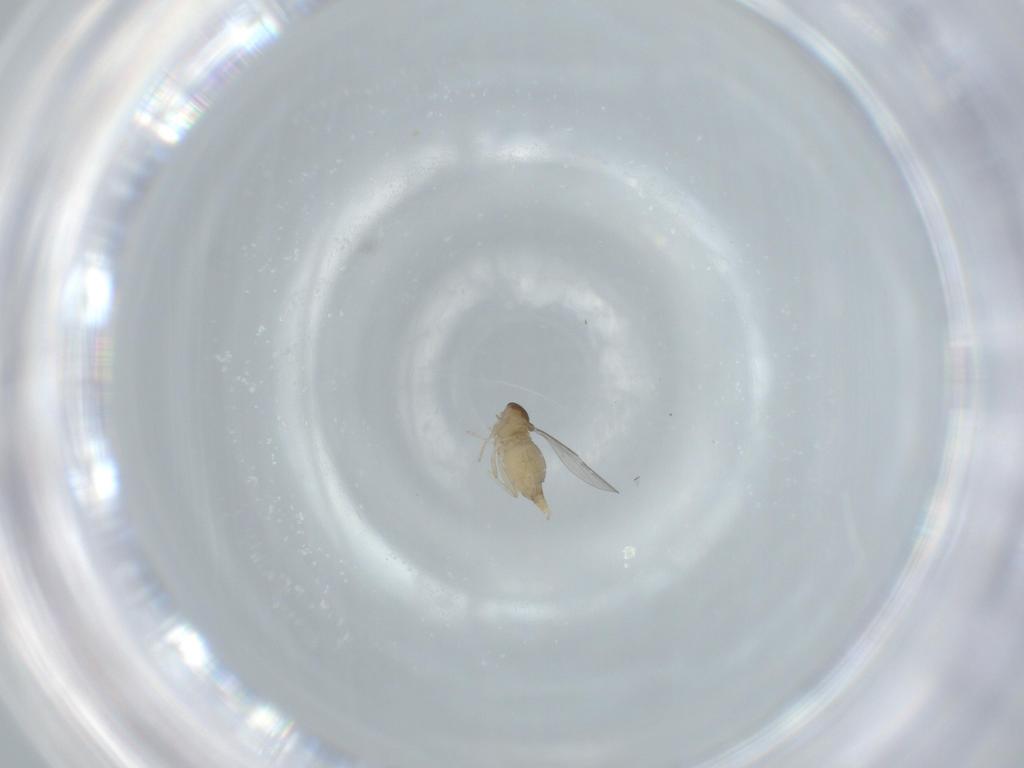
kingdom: Animalia
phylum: Arthropoda
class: Insecta
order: Diptera
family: Cecidomyiidae
